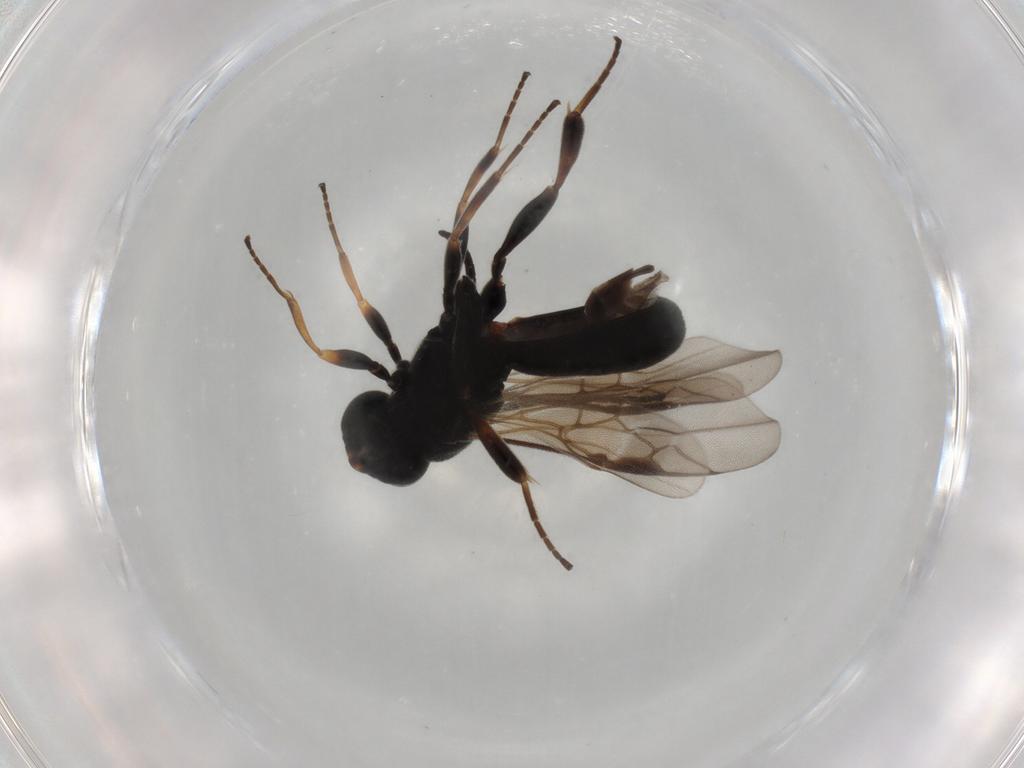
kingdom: Animalia
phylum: Arthropoda
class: Insecta
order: Hymenoptera
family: Braconidae
